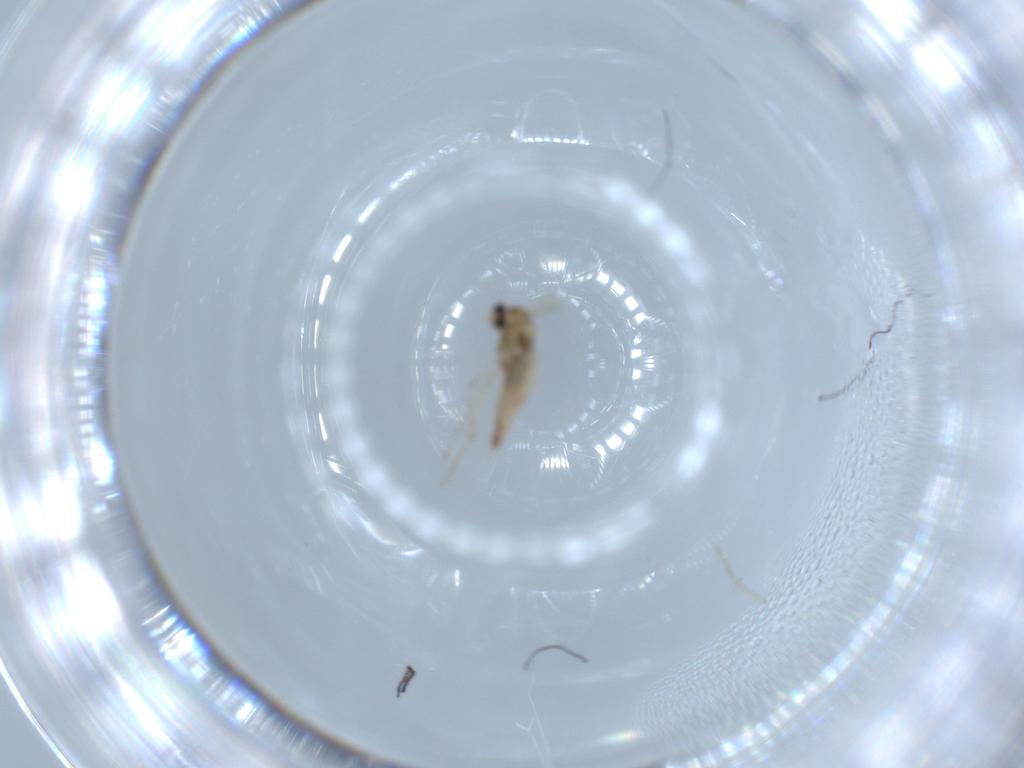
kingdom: Animalia
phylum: Arthropoda
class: Insecta
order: Diptera
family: Cecidomyiidae
